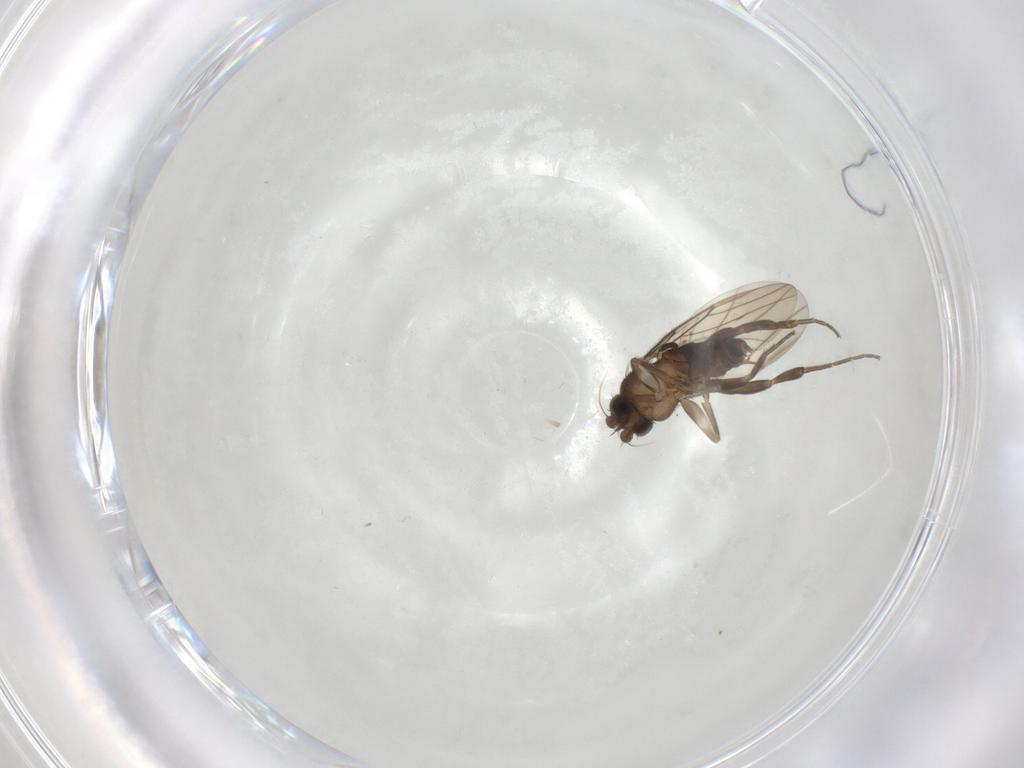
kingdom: Animalia
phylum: Arthropoda
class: Insecta
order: Diptera
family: Phoridae
